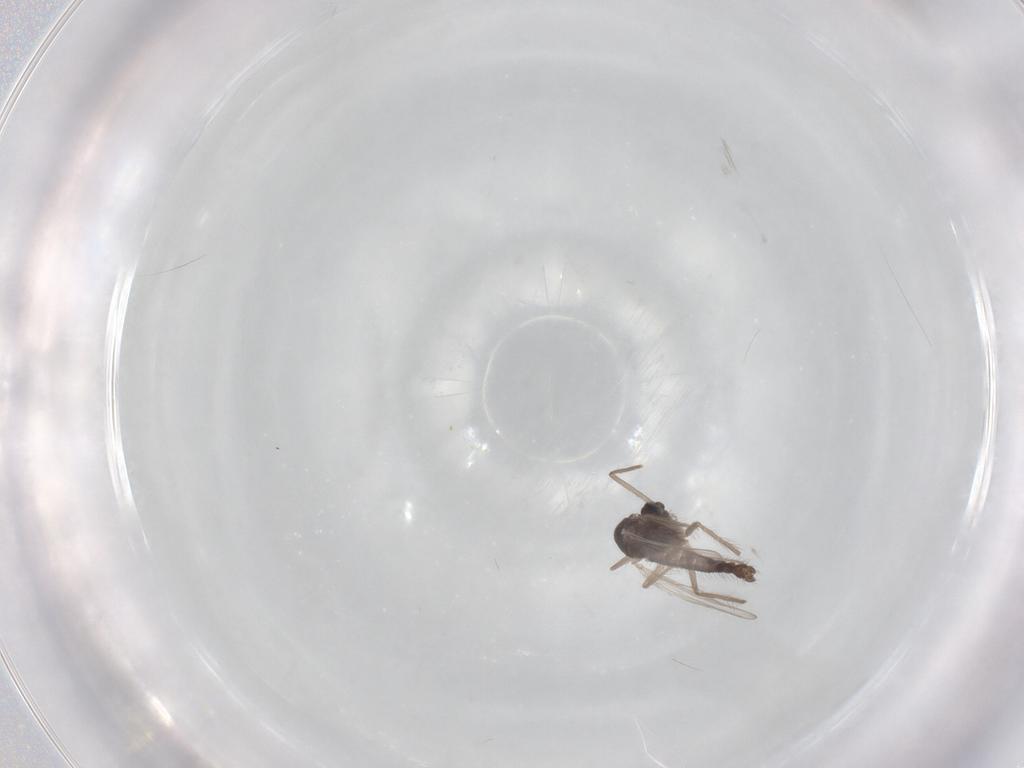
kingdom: Animalia
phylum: Arthropoda
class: Insecta
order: Diptera
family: Chironomidae
